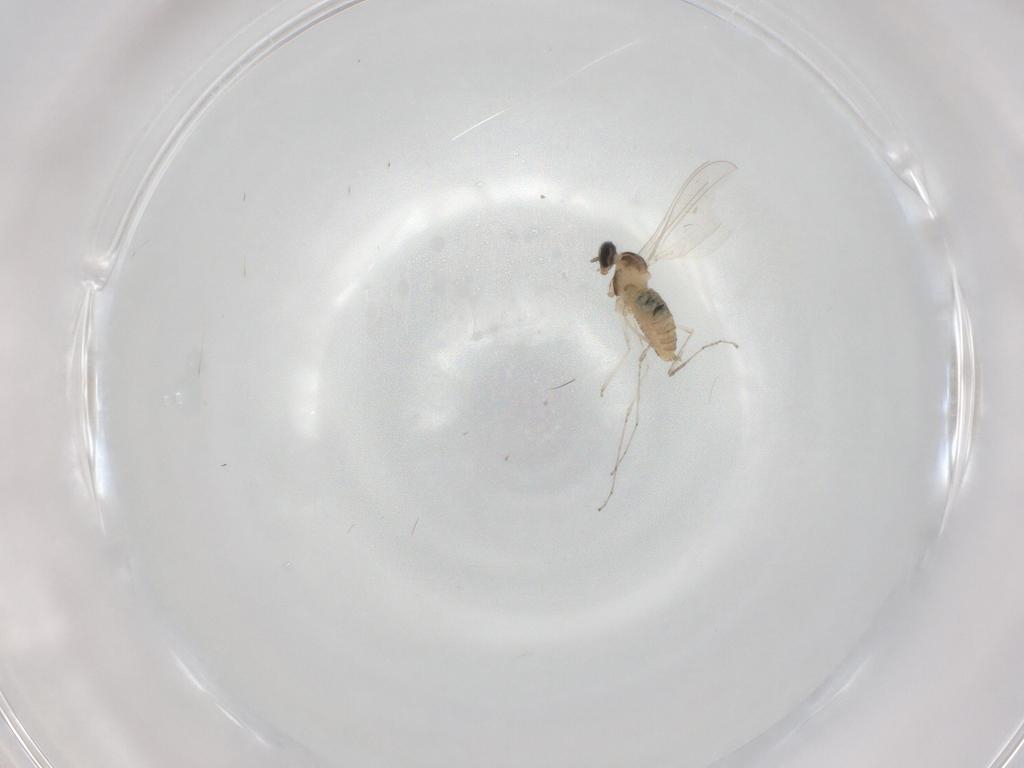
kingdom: Animalia
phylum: Arthropoda
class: Insecta
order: Diptera
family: Cecidomyiidae
